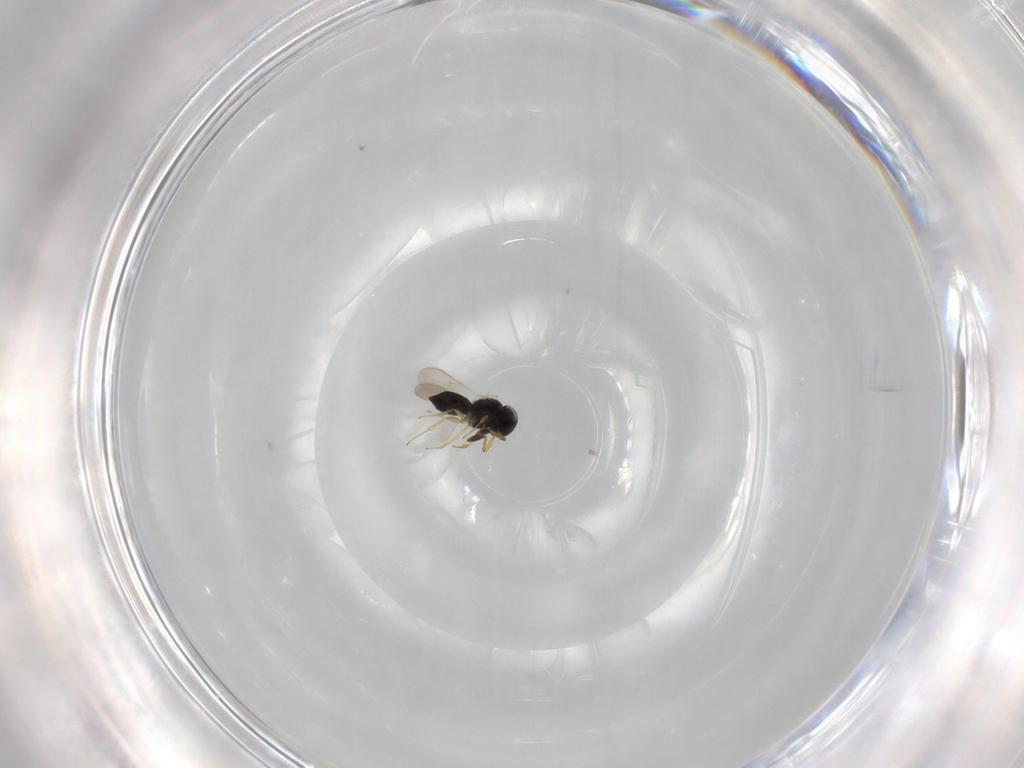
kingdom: Animalia
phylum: Arthropoda
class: Insecta
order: Hymenoptera
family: Scelionidae
